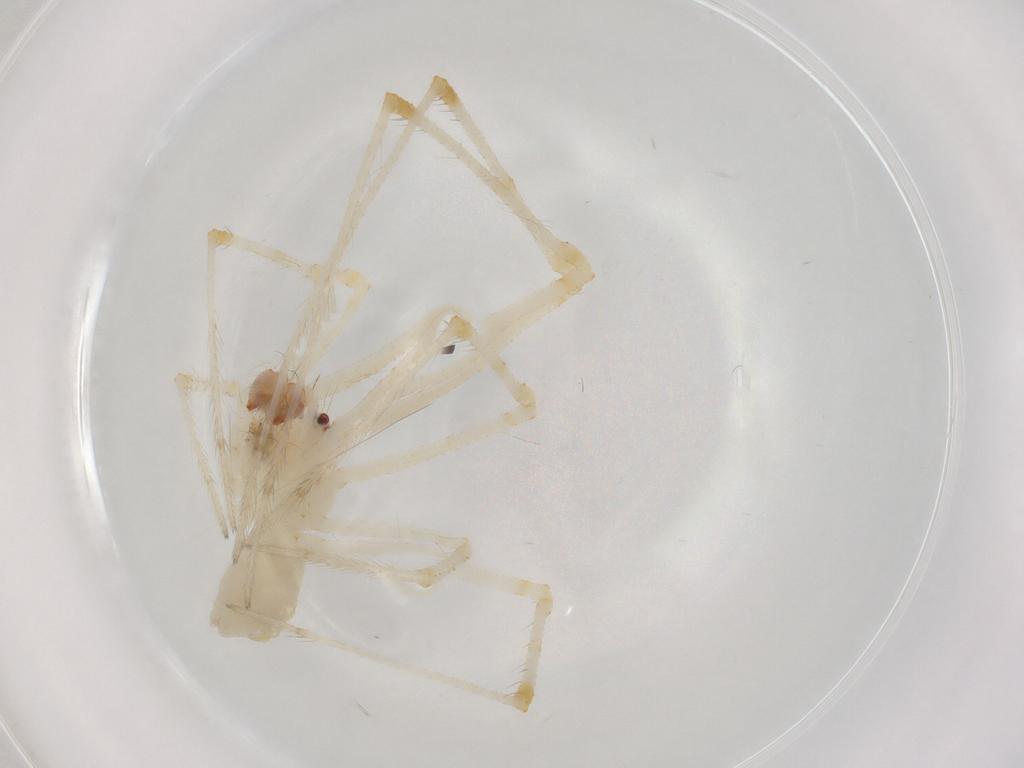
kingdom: Animalia
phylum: Arthropoda
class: Arachnida
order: Araneae
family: Theridiidae
